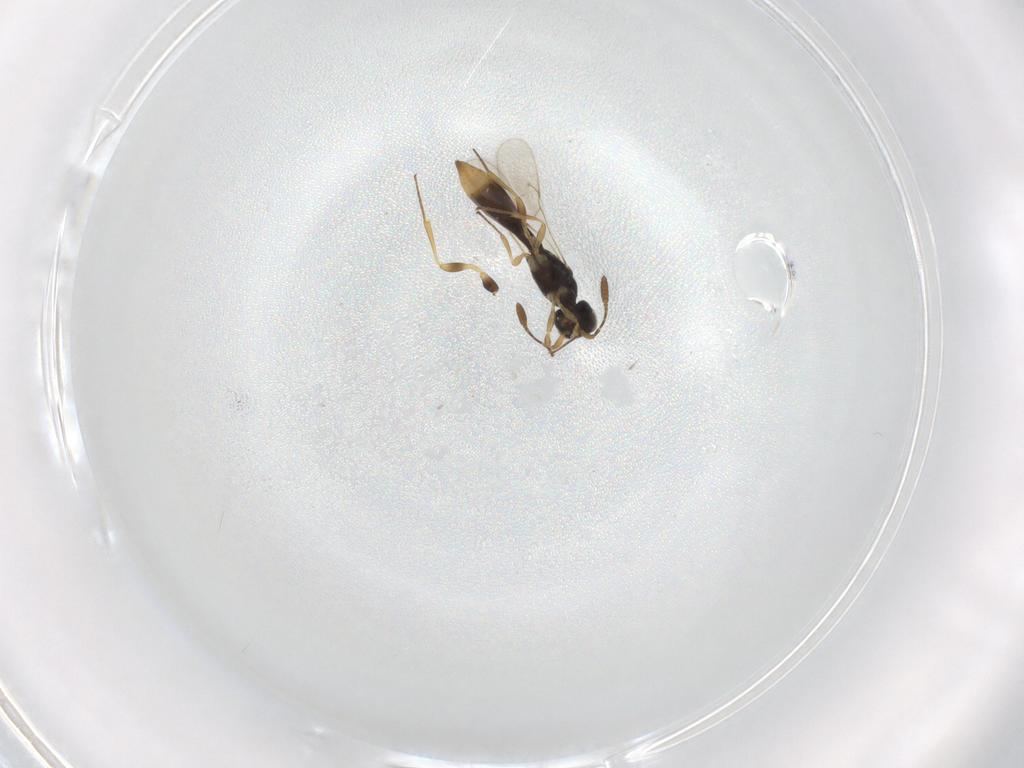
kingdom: Animalia
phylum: Arthropoda
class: Insecta
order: Hymenoptera
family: Scelionidae
